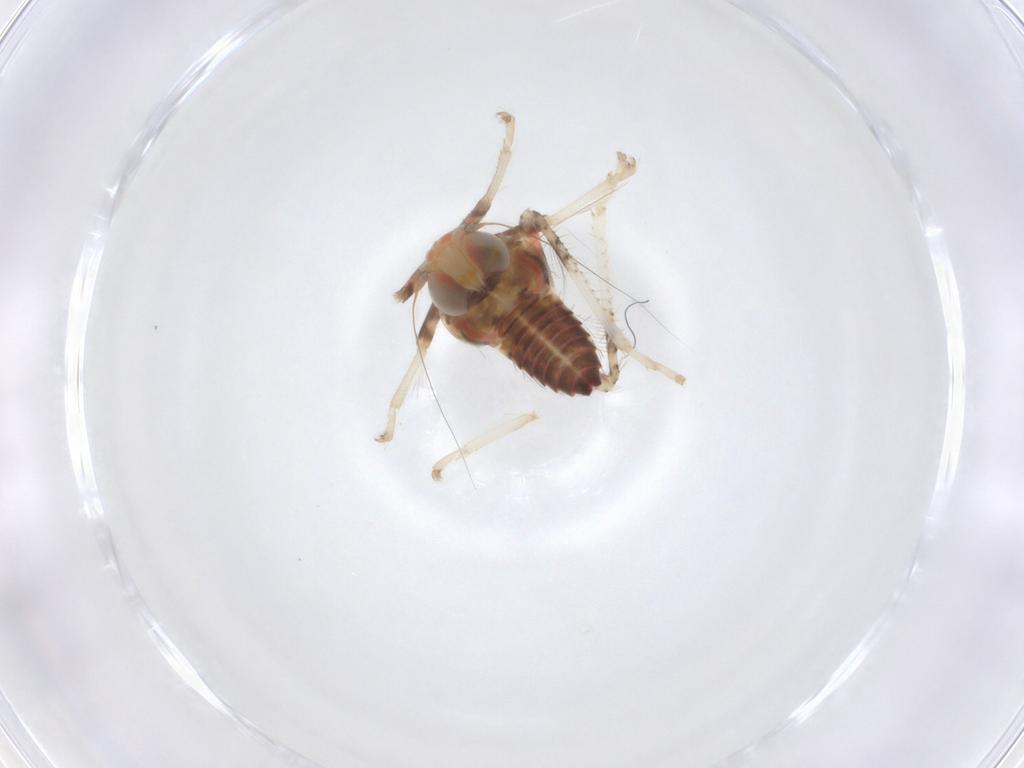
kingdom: Animalia
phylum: Arthropoda
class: Insecta
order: Hemiptera
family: Cicadellidae
